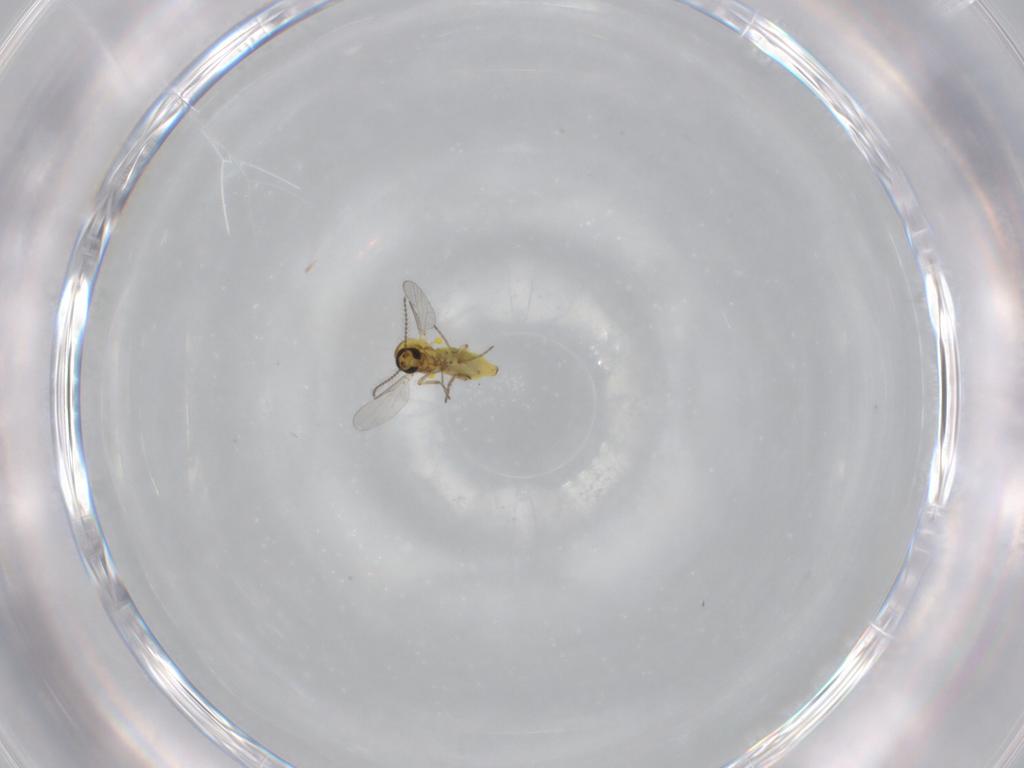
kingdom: Animalia
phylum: Arthropoda
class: Insecta
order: Diptera
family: Ceratopogonidae
